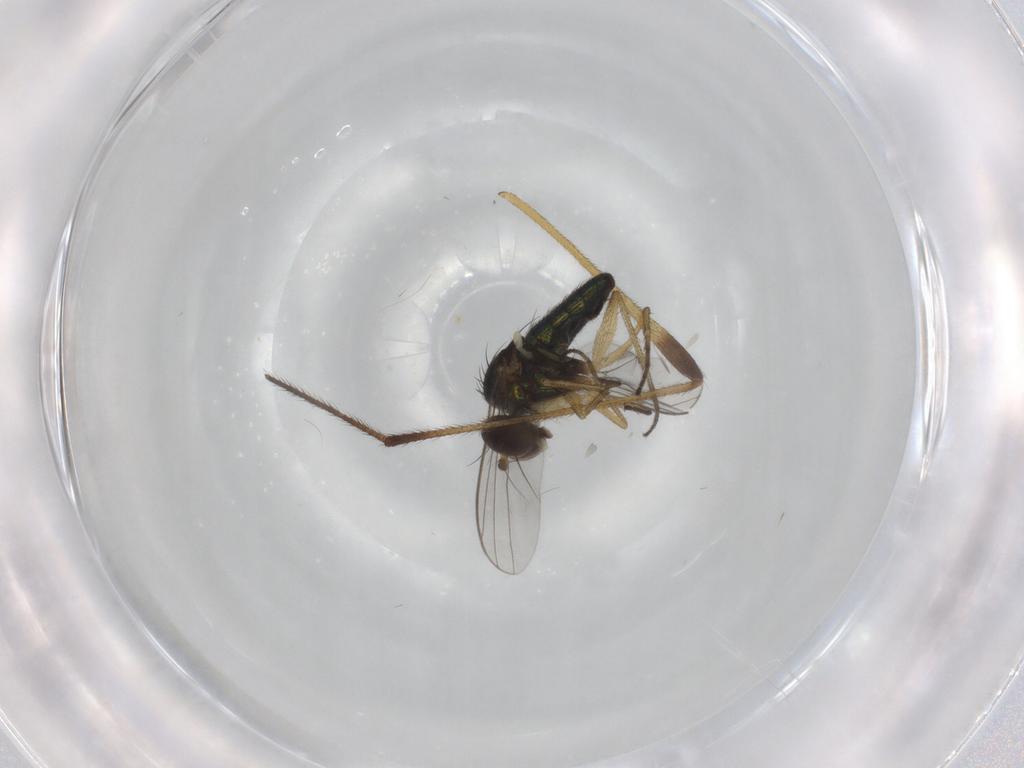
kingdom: Animalia
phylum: Arthropoda
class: Insecta
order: Diptera
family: Limoniidae
